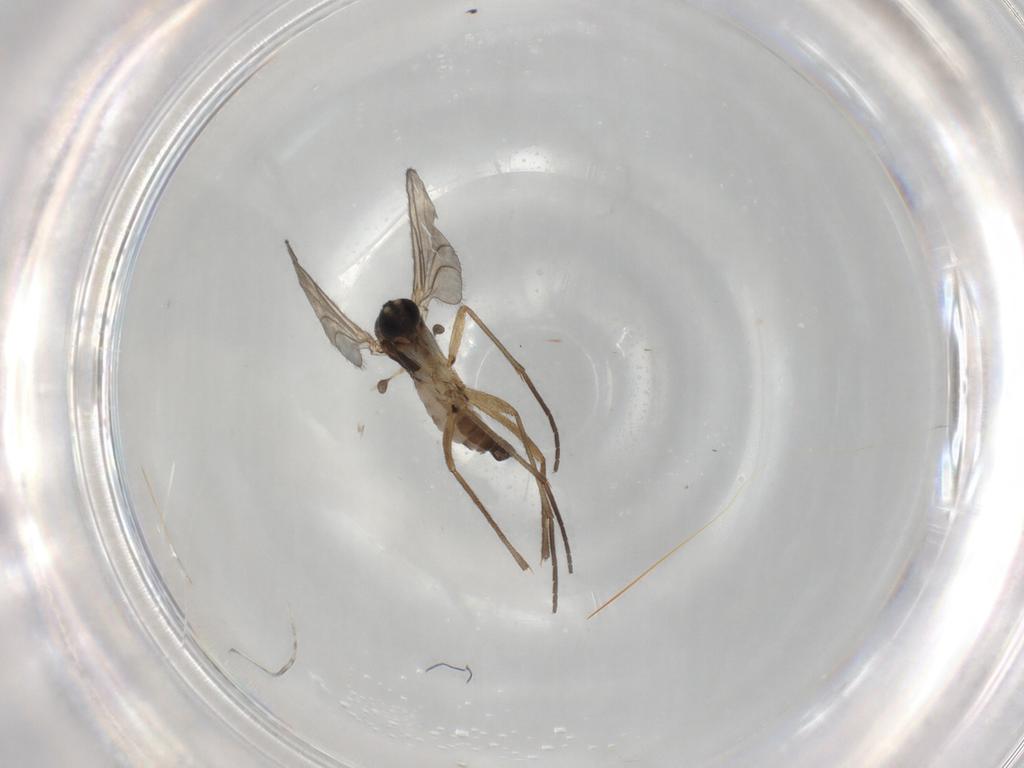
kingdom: Animalia
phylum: Arthropoda
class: Insecta
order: Diptera
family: Sciaridae
